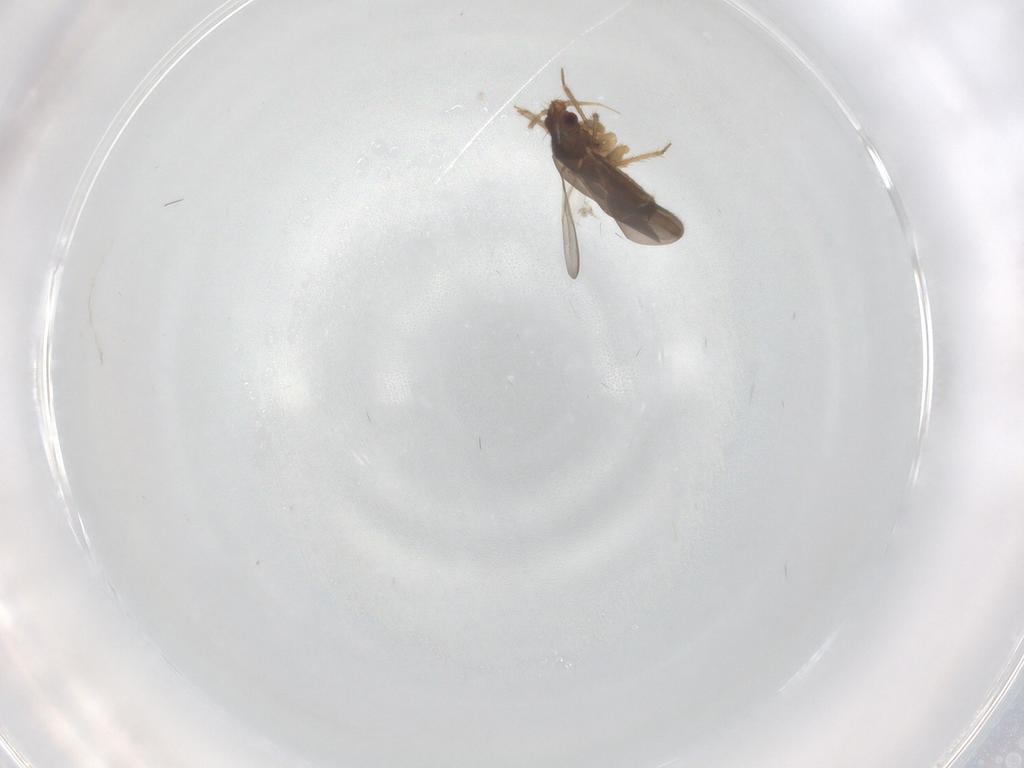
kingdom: Animalia
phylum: Arthropoda
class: Insecta
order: Hemiptera
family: Ceratocombidae
